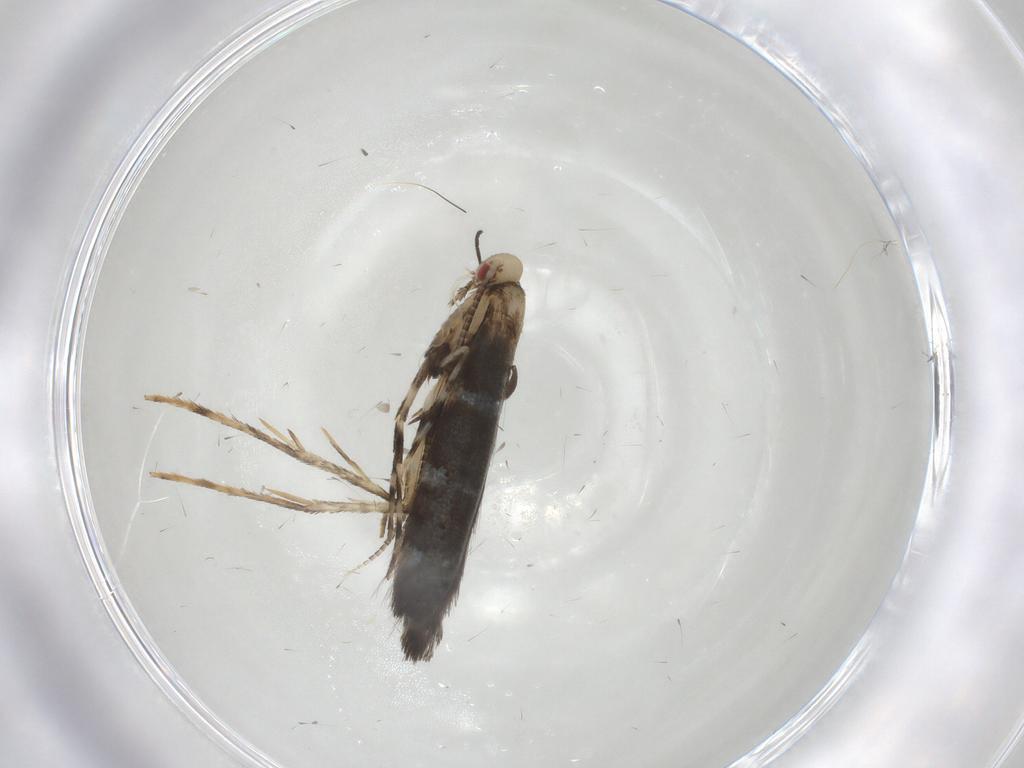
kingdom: Animalia
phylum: Arthropoda
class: Insecta
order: Lepidoptera
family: Gracillariidae
